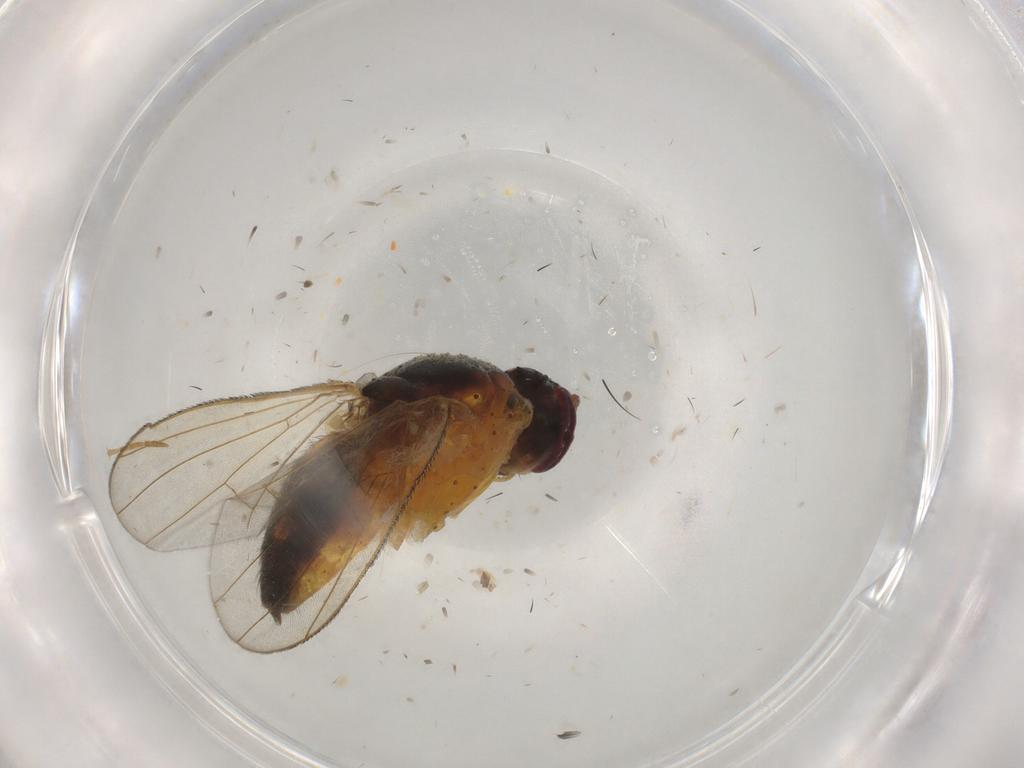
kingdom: Animalia
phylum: Arthropoda
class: Insecta
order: Diptera
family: Muscidae
